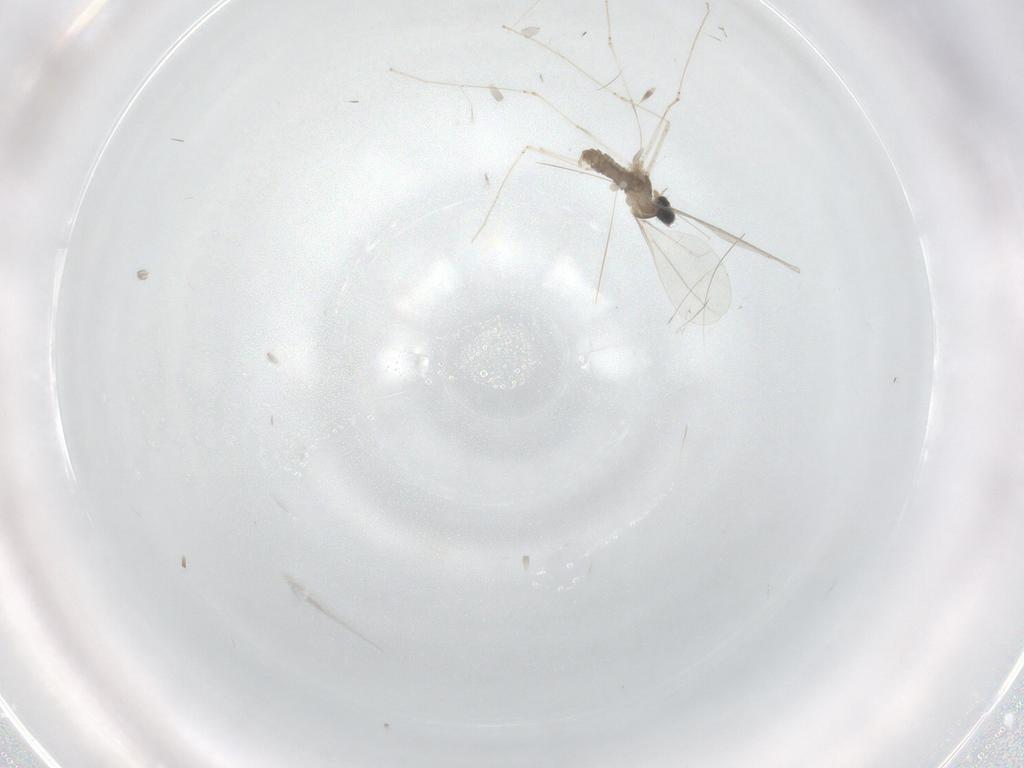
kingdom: Animalia
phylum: Arthropoda
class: Insecta
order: Diptera
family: Cecidomyiidae
